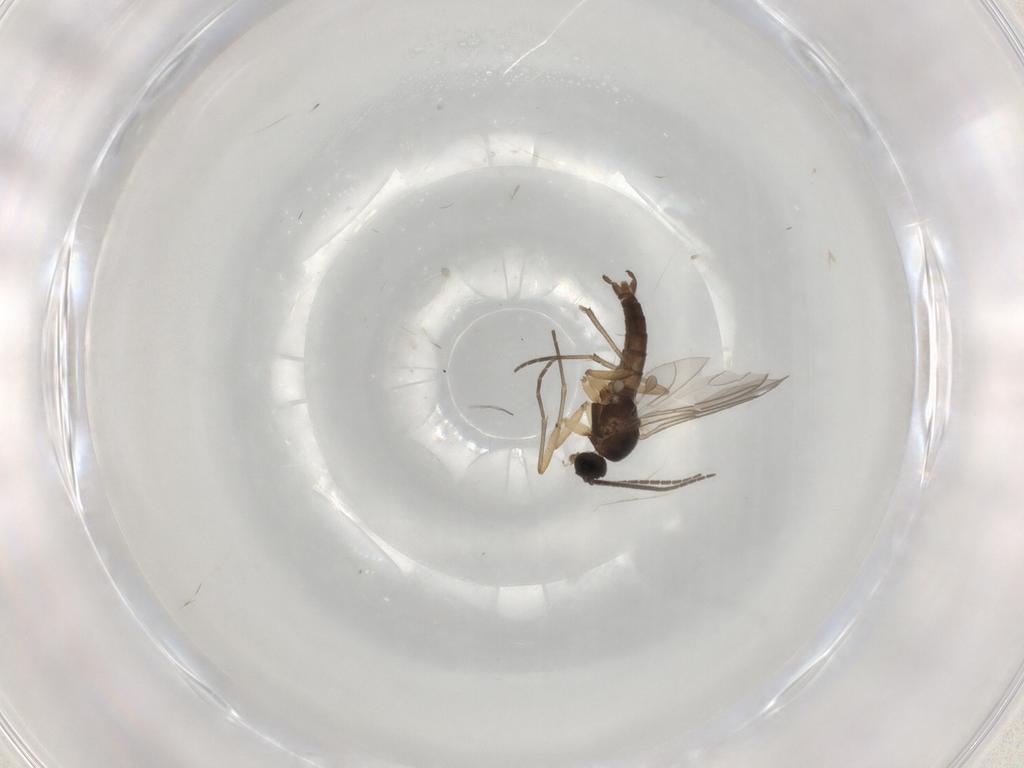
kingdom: Animalia
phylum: Arthropoda
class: Insecta
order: Diptera
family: Sciaridae
